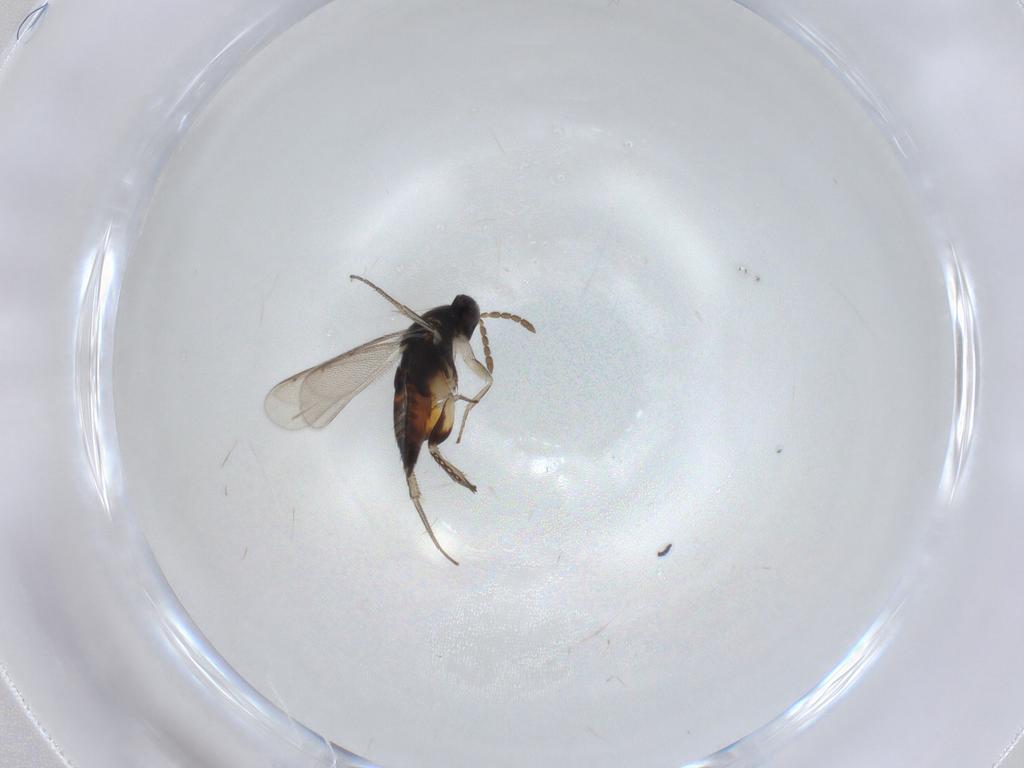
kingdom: Animalia
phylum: Arthropoda
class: Insecta
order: Hymenoptera
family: Eulophidae
